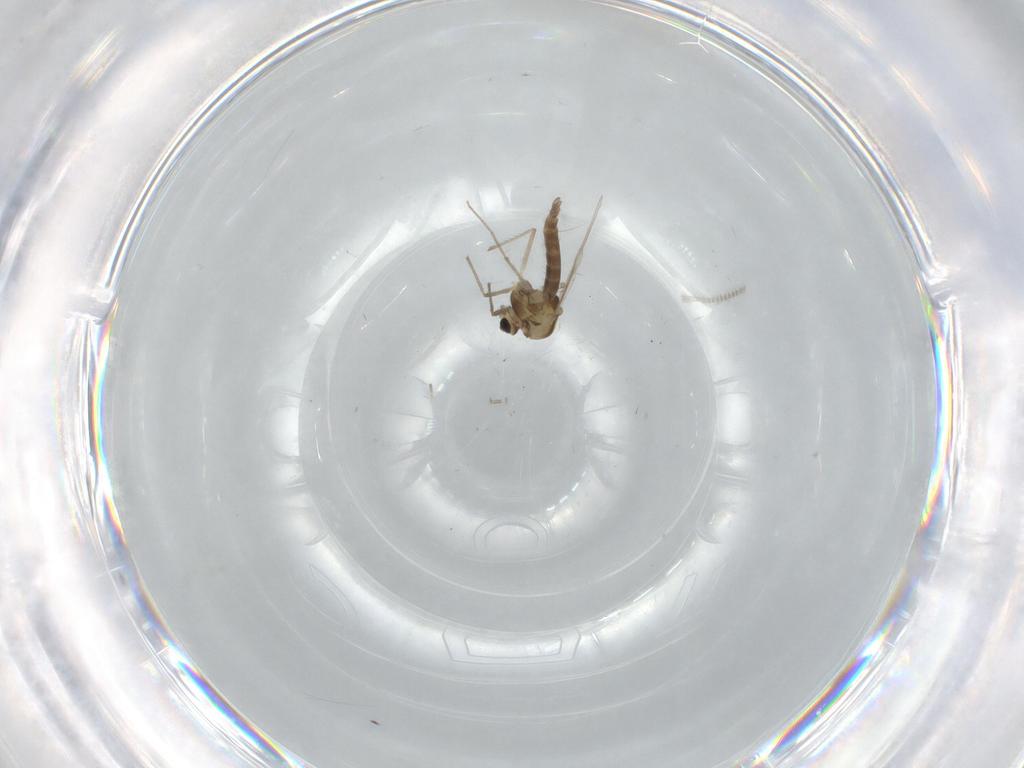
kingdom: Animalia
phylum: Arthropoda
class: Insecta
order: Diptera
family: Chironomidae
